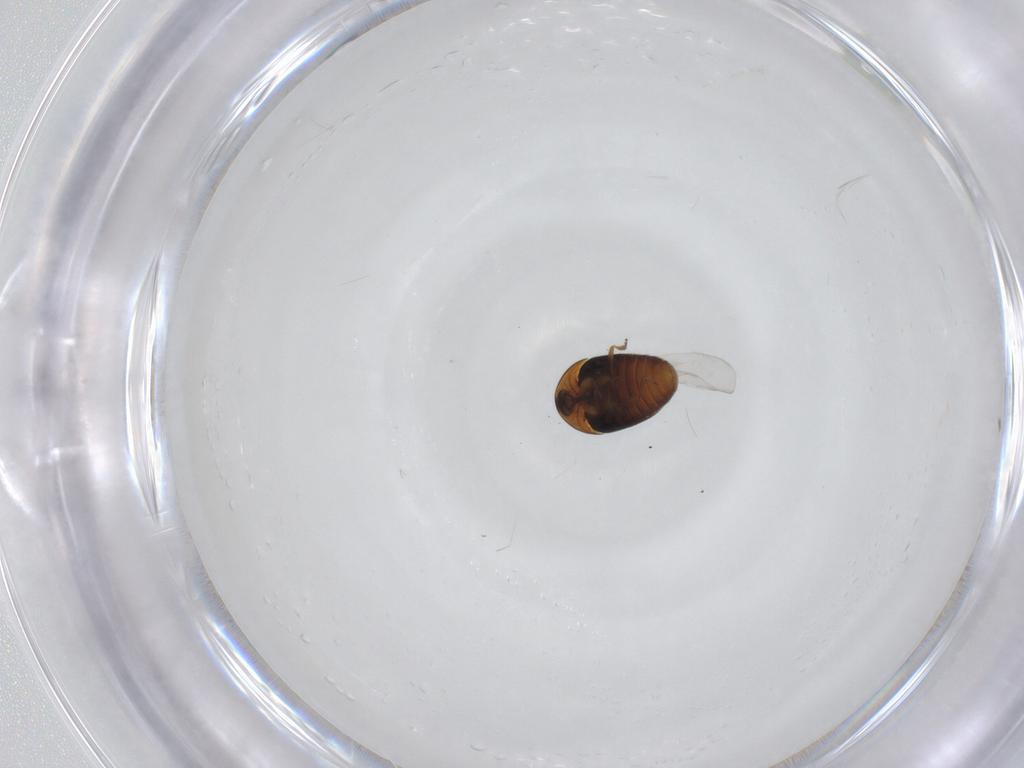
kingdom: Animalia
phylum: Arthropoda
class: Insecta
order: Coleoptera
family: Corylophidae
